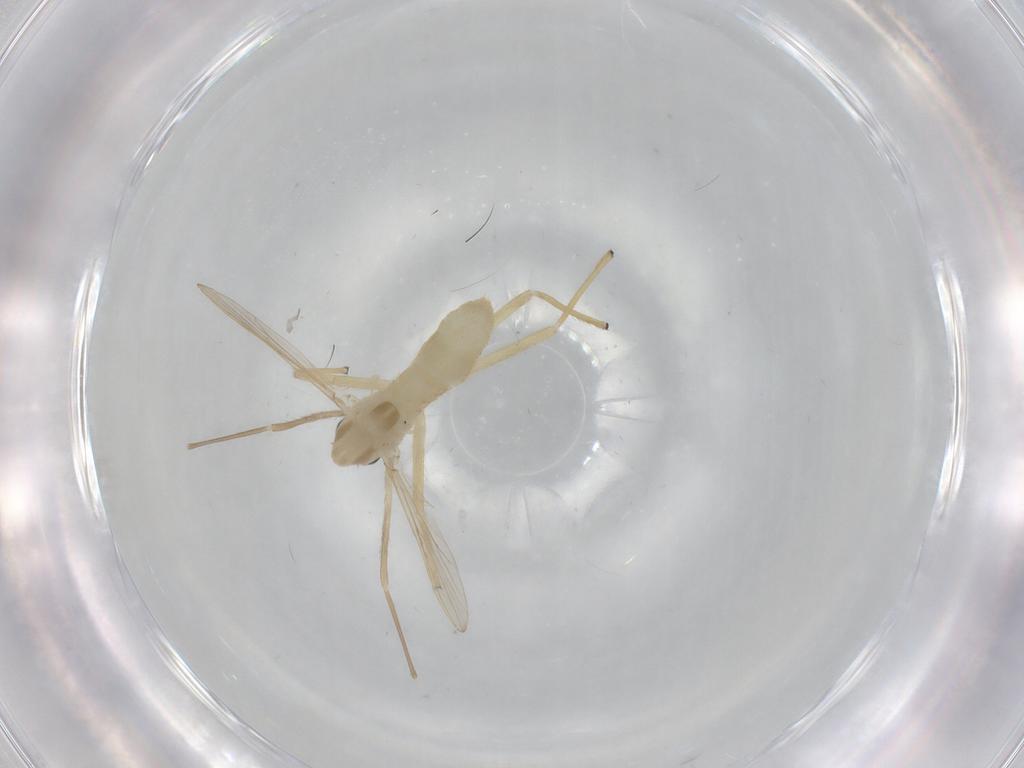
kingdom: Animalia
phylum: Arthropoda
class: Insecta
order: Diptera
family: Chironomidae
